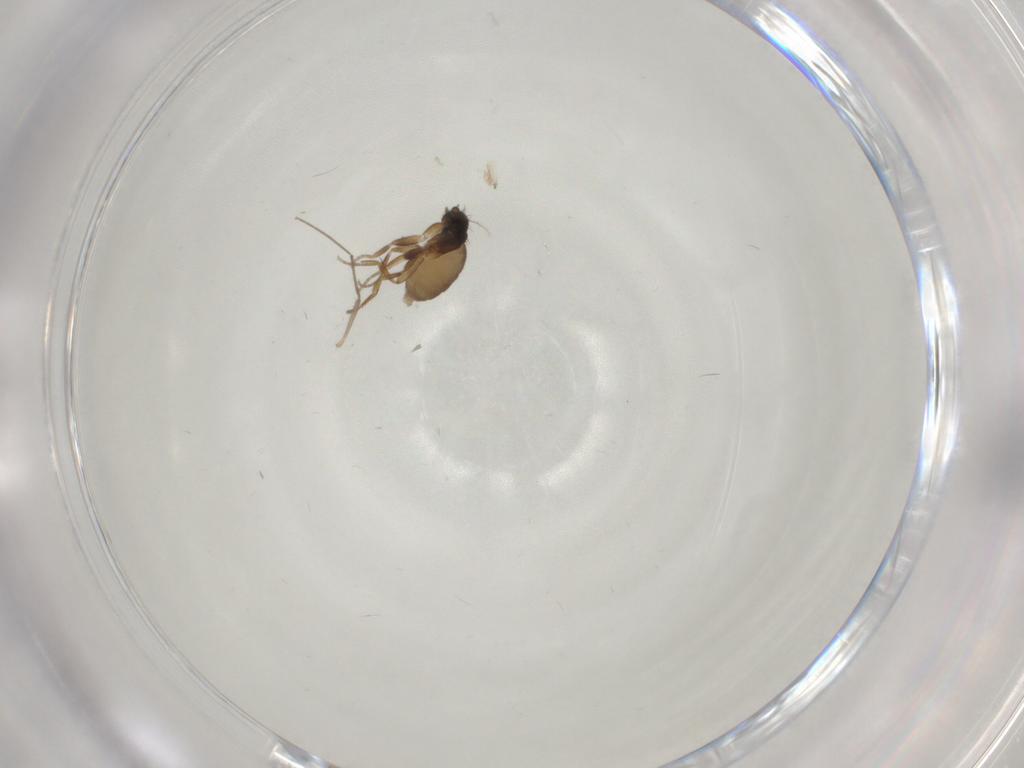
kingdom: Animalia
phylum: Arthropoda
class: Insecta
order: Diptera
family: Cecidomyiidae
